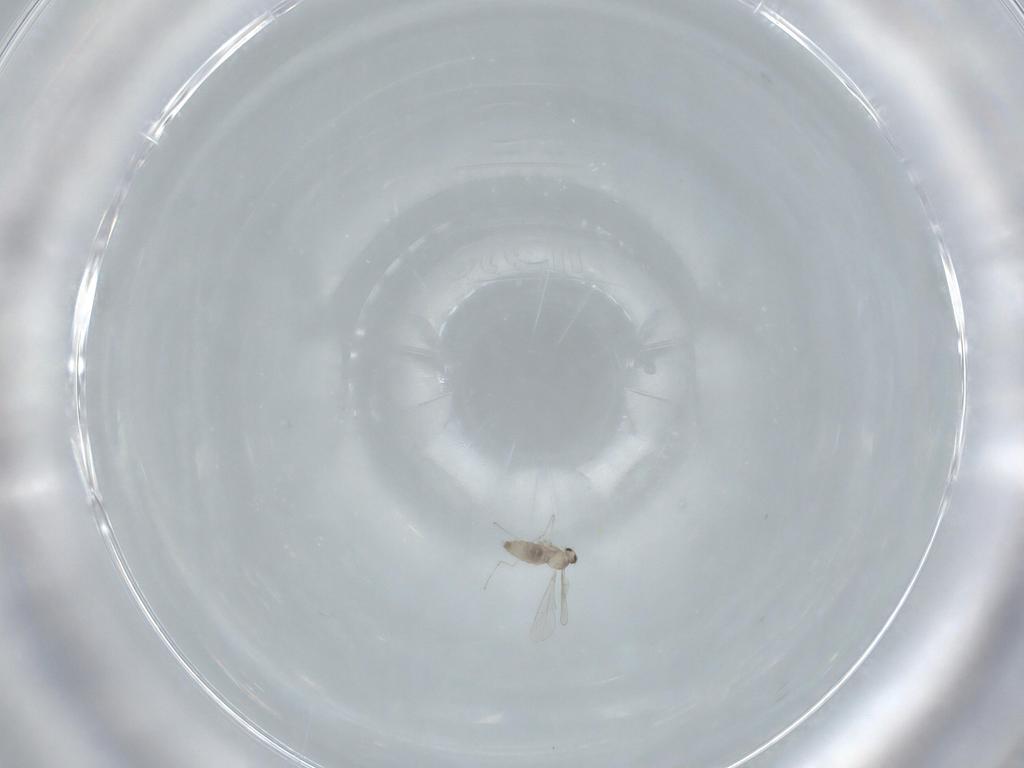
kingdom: Animalia
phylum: Arthropoda
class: Insecta
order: Diptera
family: Cecidomyiidae
